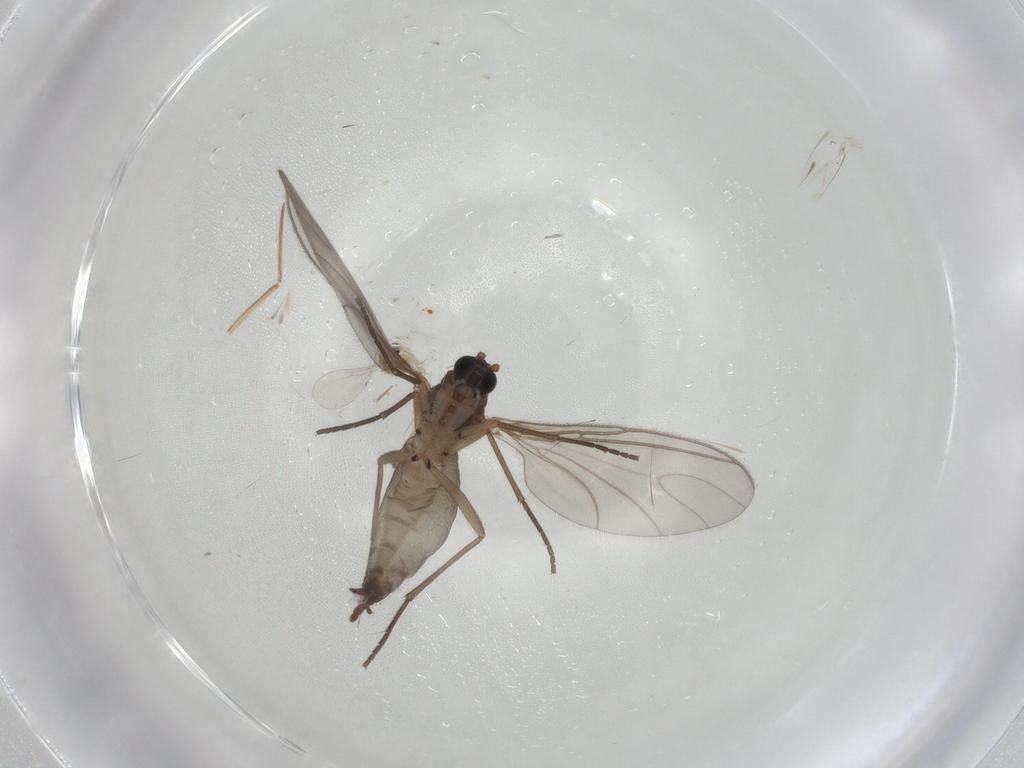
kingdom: Animalia
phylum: Arthropoda
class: Insecta
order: Diptera
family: Sciaridae
